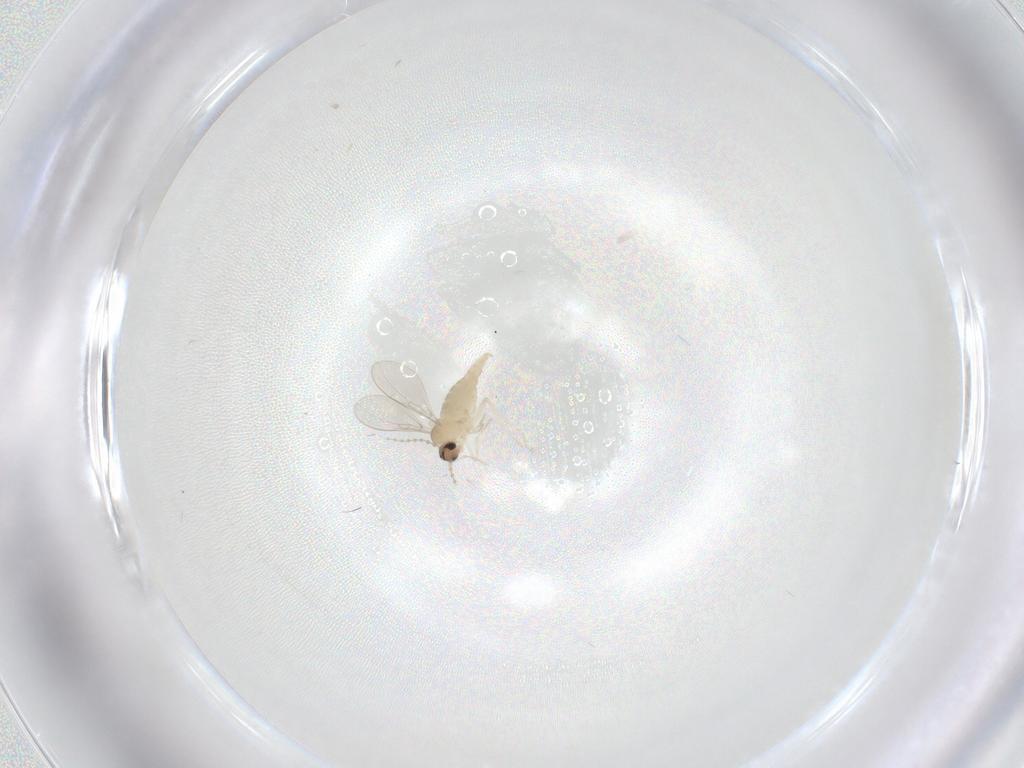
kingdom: Animalia
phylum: Arthropoda
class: Insecta
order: Diptera
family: Cecidomyiidae
